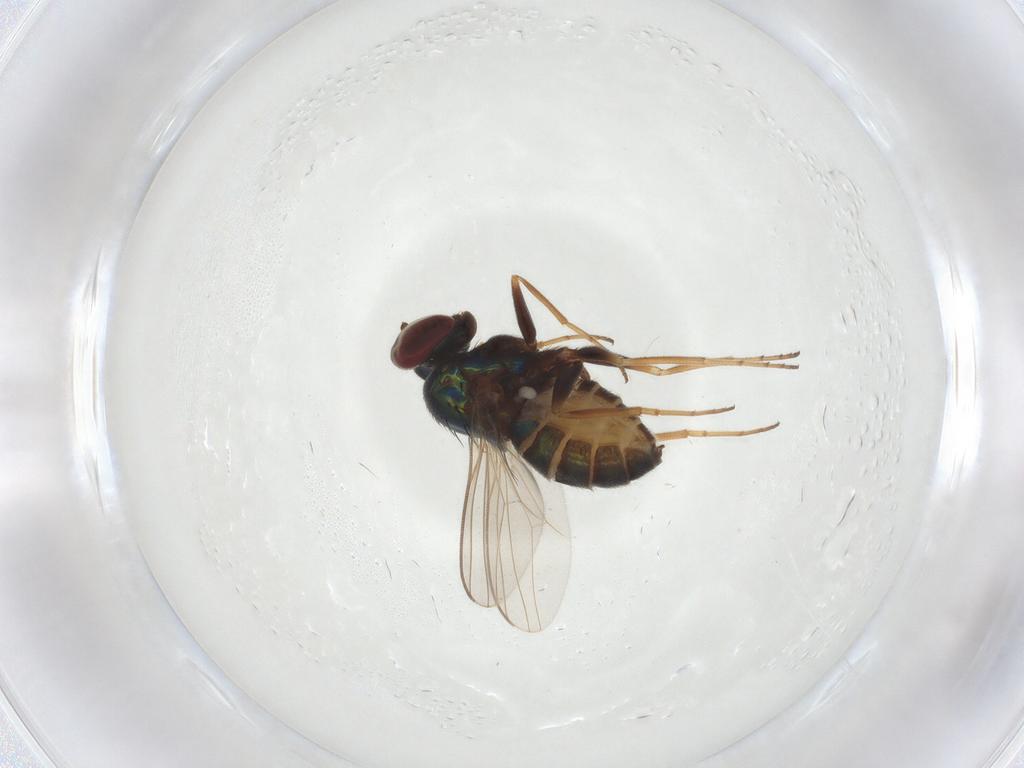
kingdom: Animalia
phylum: Arthropoda
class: Insecta
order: Diptera
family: Dolichopodidae
